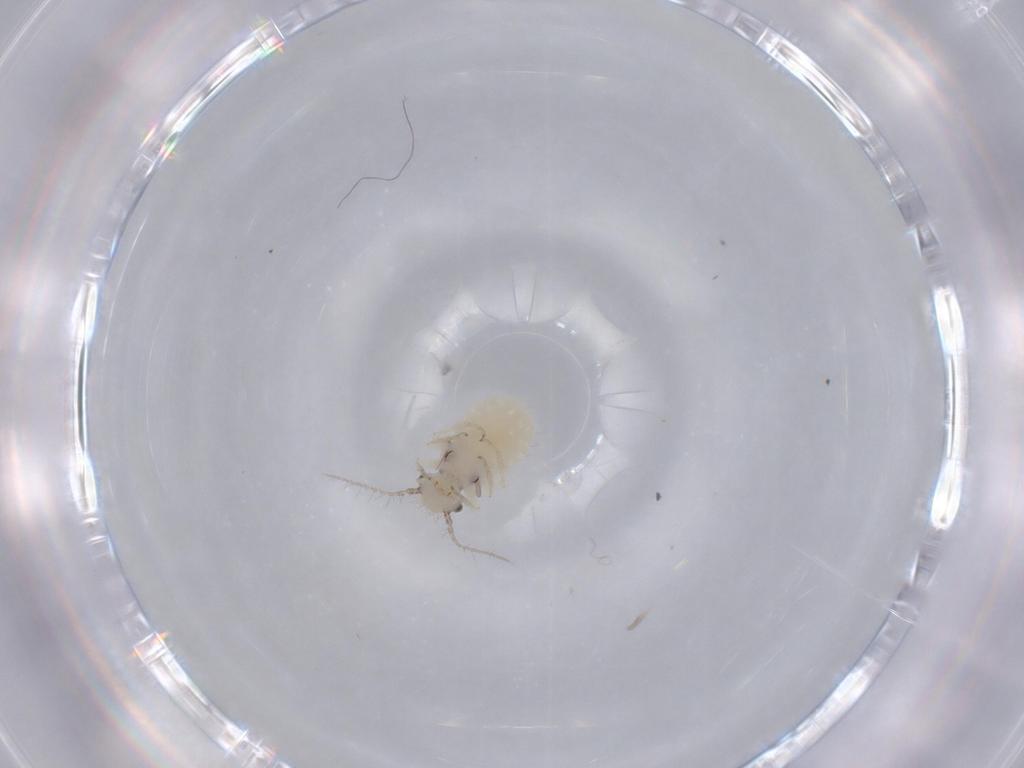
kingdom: Animalia
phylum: Arthropoda
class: Insecta
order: Psocodea
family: Pseudocaeciliidae
